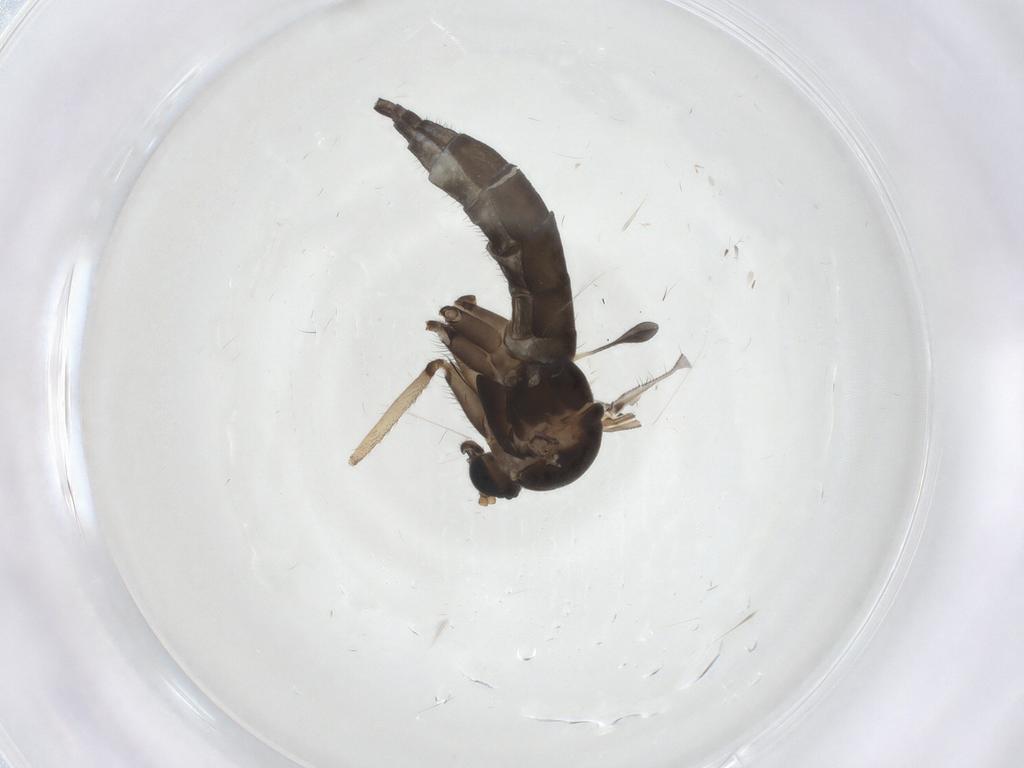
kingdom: Animalia
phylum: Arthropoda
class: Insecta
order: Diptera
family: Sciaridae
